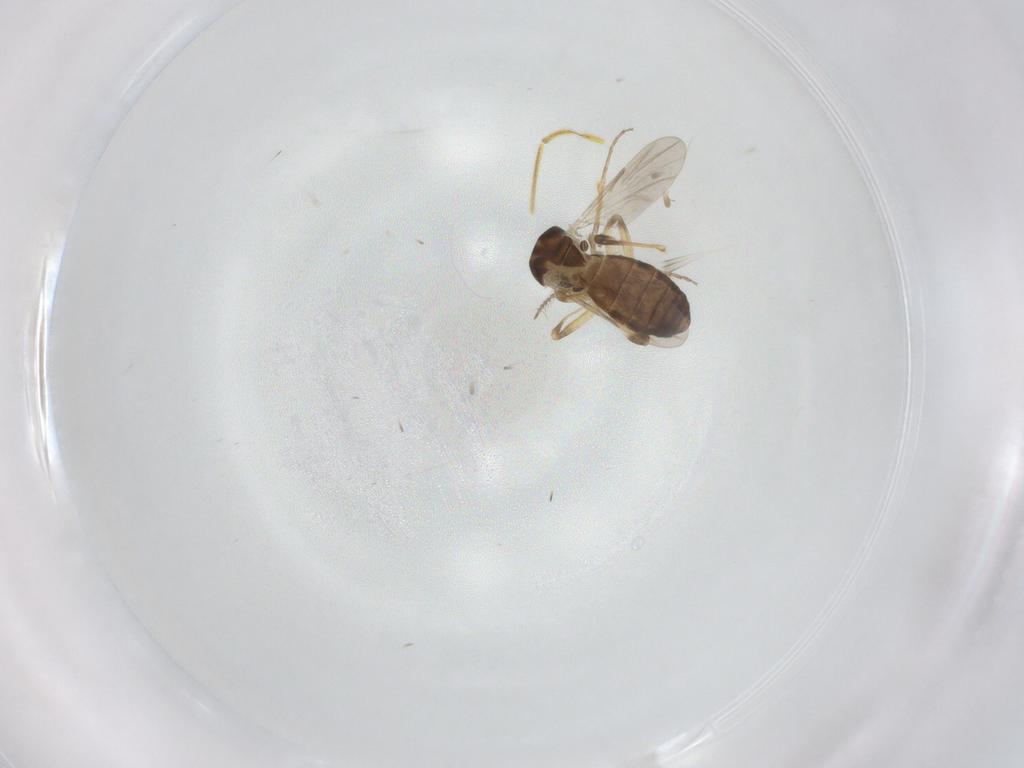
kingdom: Animalia
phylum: Arthropoda
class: Insecta
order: Diptera
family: Ceratopogonidae
